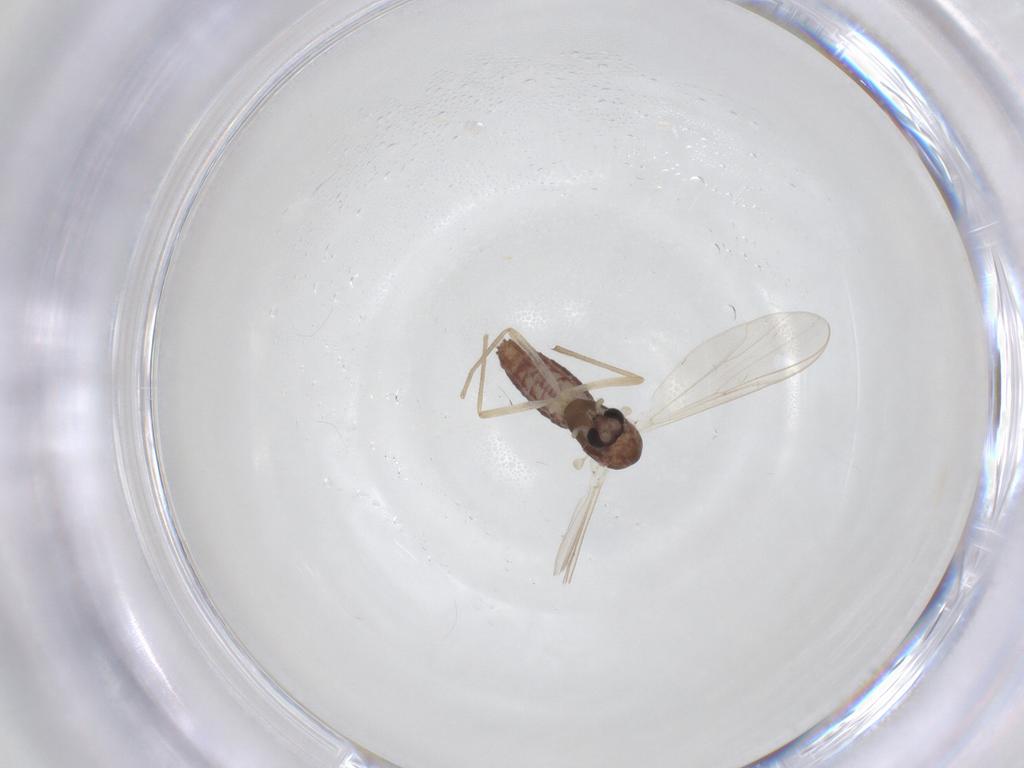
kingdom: Animalia
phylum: Arthropoda
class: Insecta
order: Diptera
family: Chironomidae
